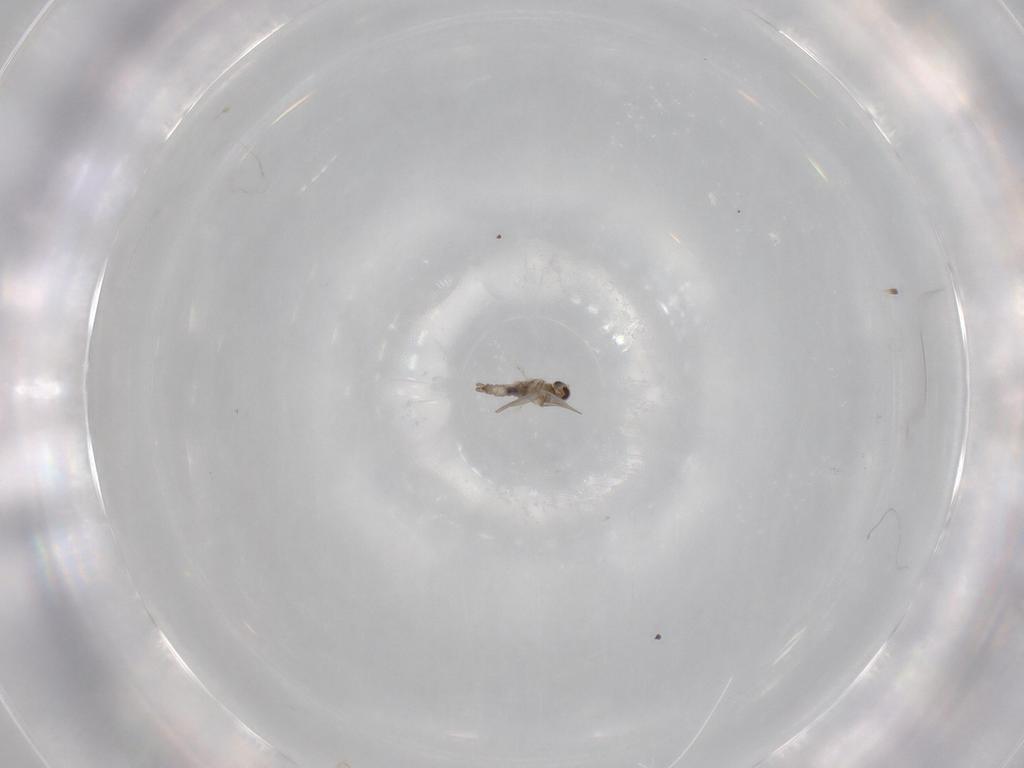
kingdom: Animalia
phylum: Arthropoda
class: Insecta
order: Diptera
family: Cecidomyiidae
